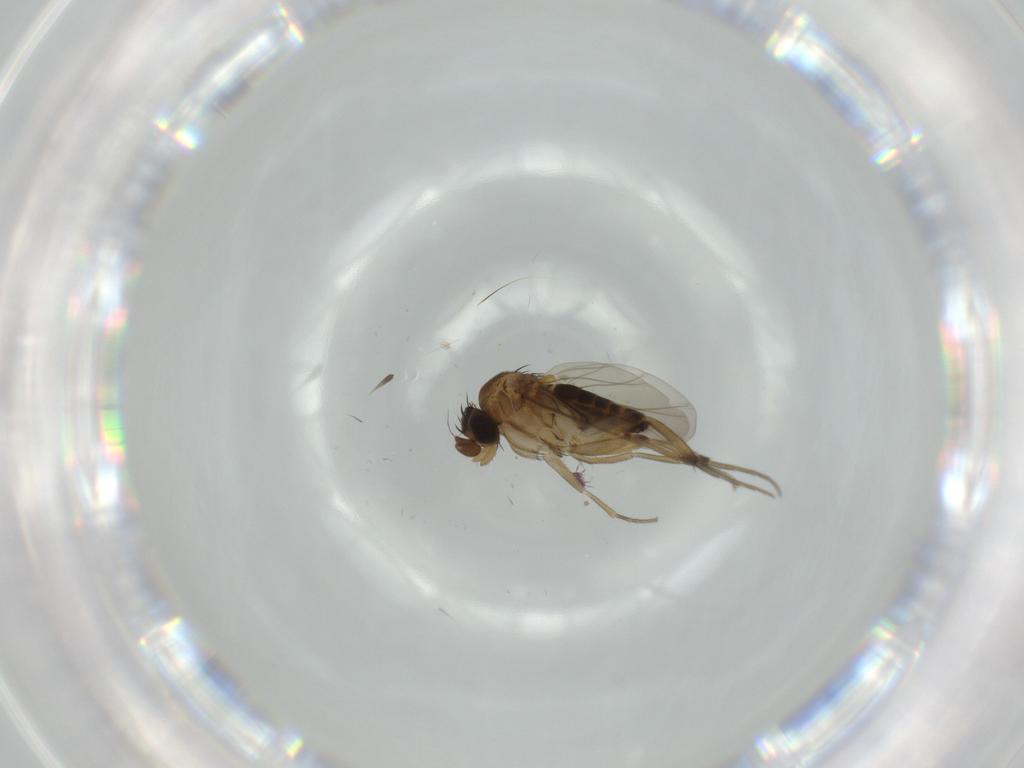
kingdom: Animalia
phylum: Arthropoda
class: Insecta
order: Diptera
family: Phoridae
